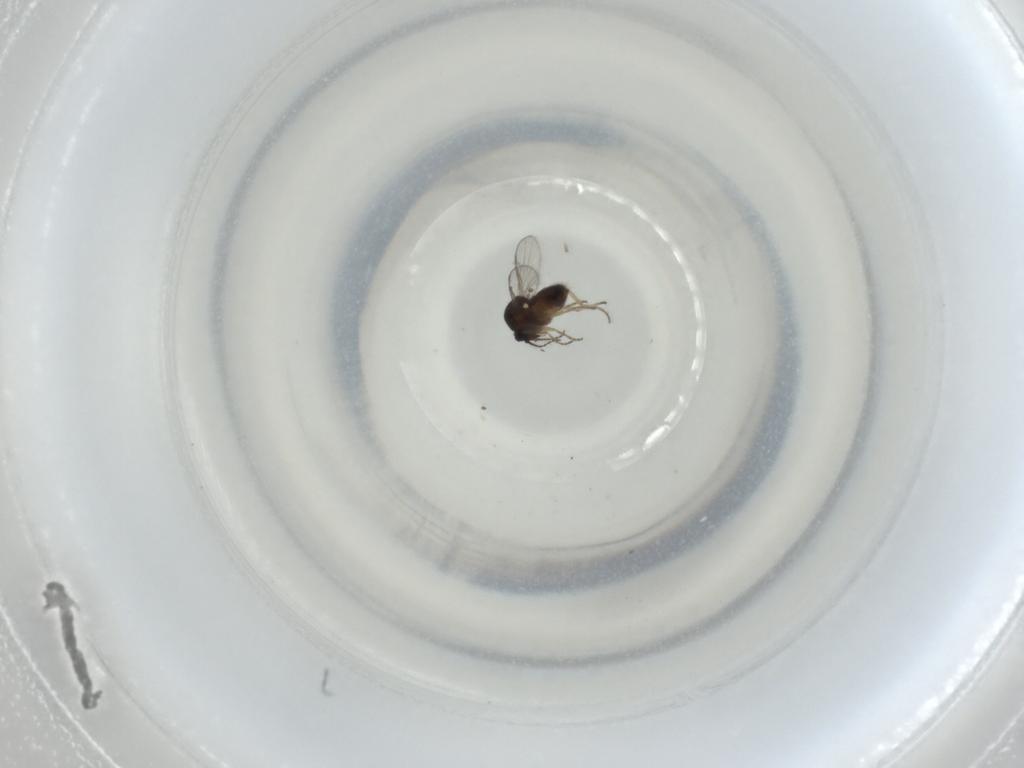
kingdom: Animalia
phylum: Arthropoda
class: Insecta
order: Diptera
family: Ceratopogonidae
